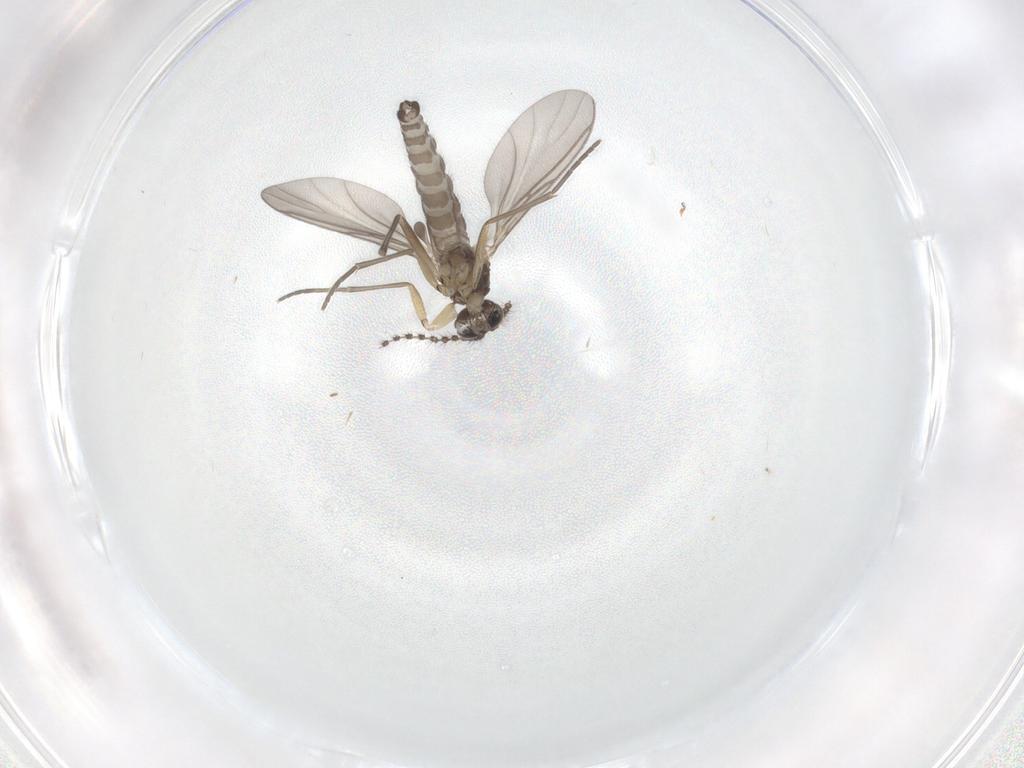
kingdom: Animalia
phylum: Arthropoda
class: Insecta
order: Diptera
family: Sciaridae
